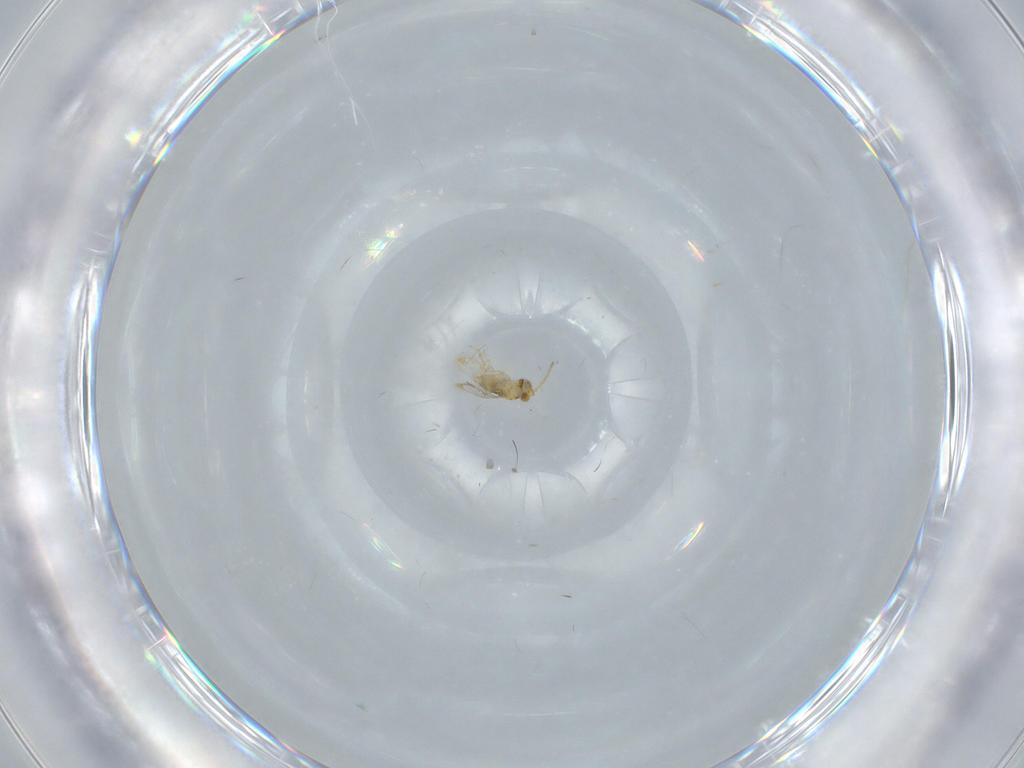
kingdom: Animalia
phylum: Arthropoda
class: Insecta
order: Hymenoptera
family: Aphelinidae
